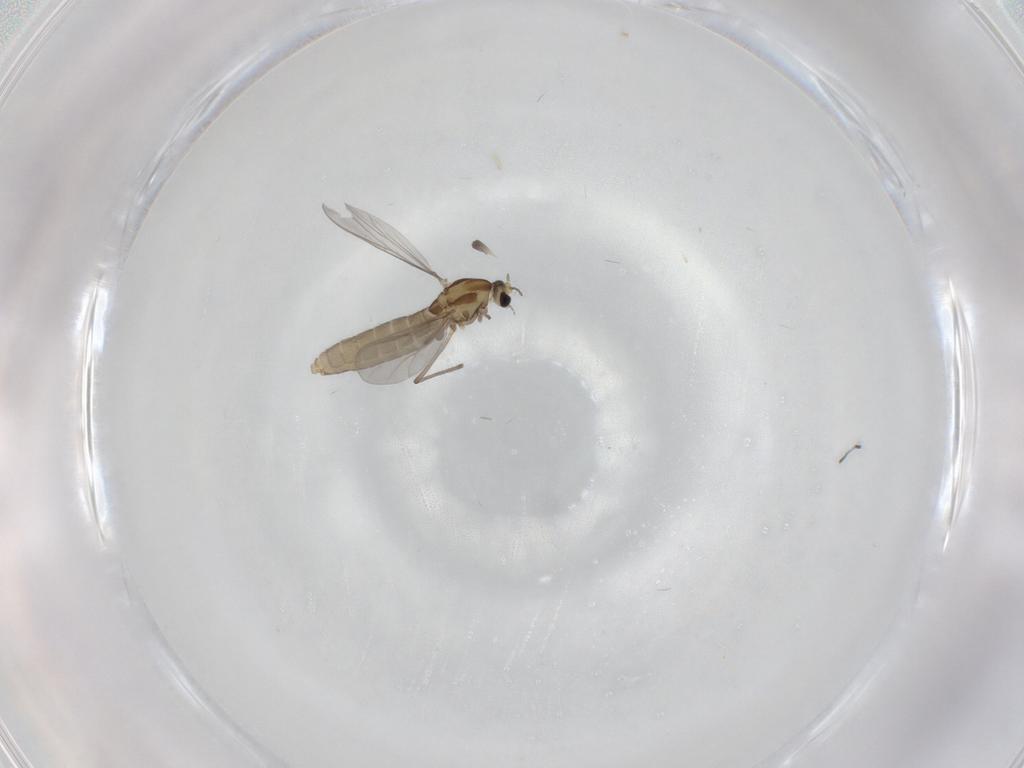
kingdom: Animalia
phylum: Arthropoda
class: Insecta
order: Diptera
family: Chironomidae
